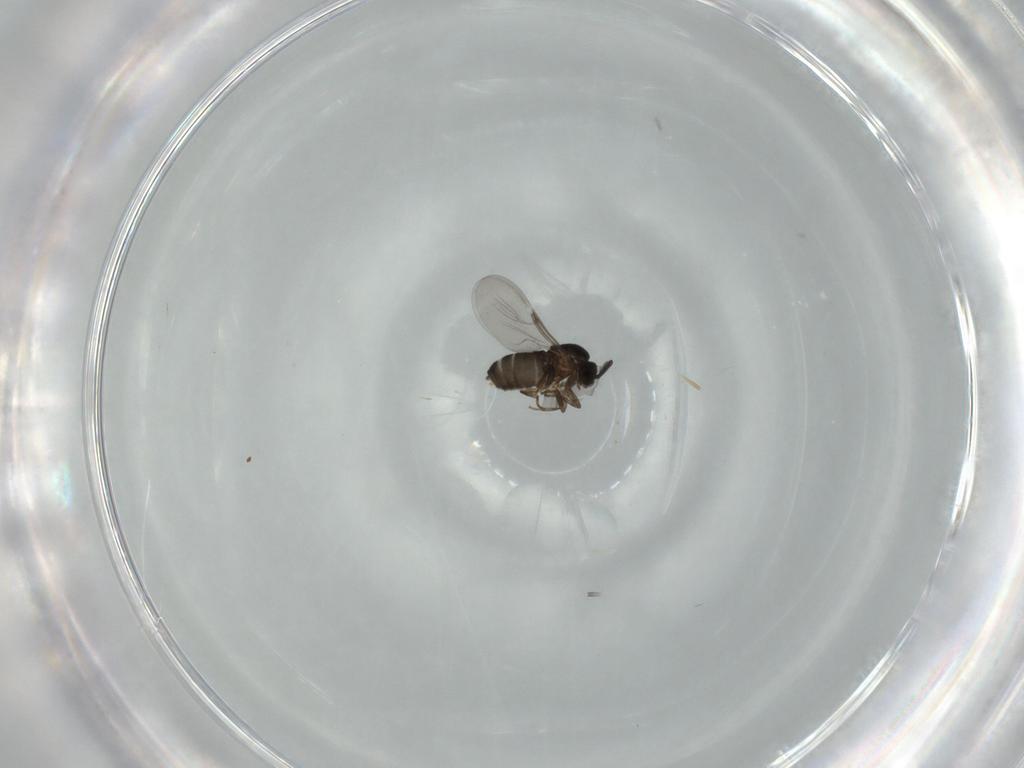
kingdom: Animalia
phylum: Arthropoda
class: Insecta
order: Diptera
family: Scatopsidae
